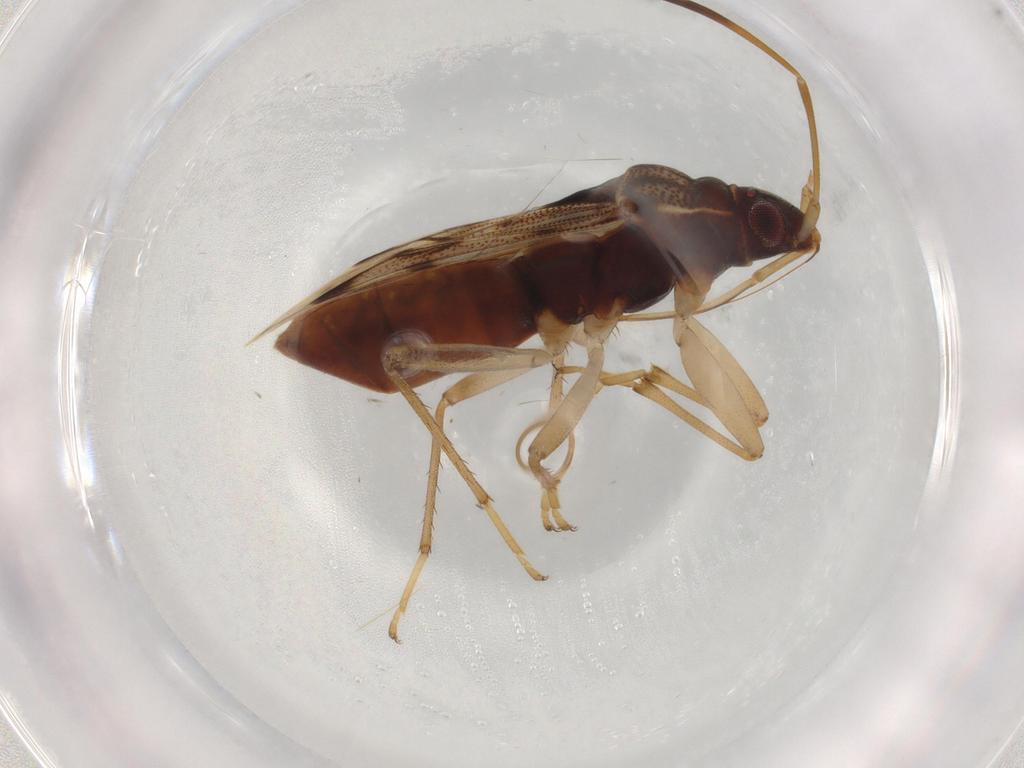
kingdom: Animalia
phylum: Arthropoda
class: Insecta
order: Hemiptera
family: Rhyparochromidae
